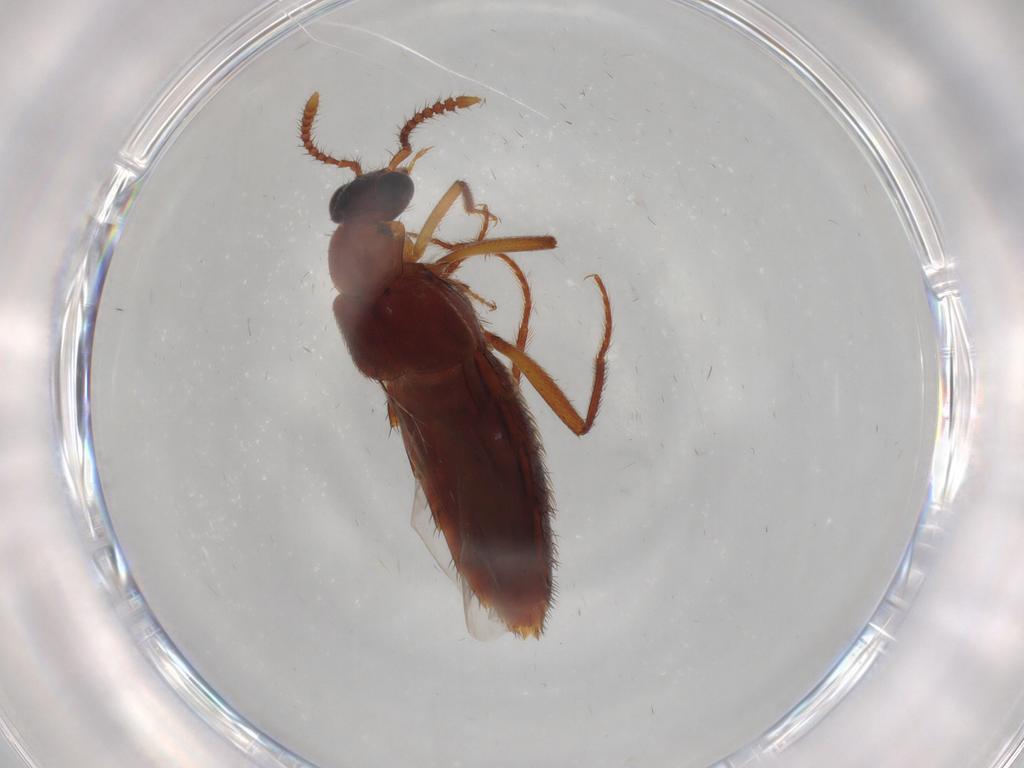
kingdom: Animalia
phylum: Arthropoda
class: Insecta
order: Coleoptera
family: Staphylinidae
